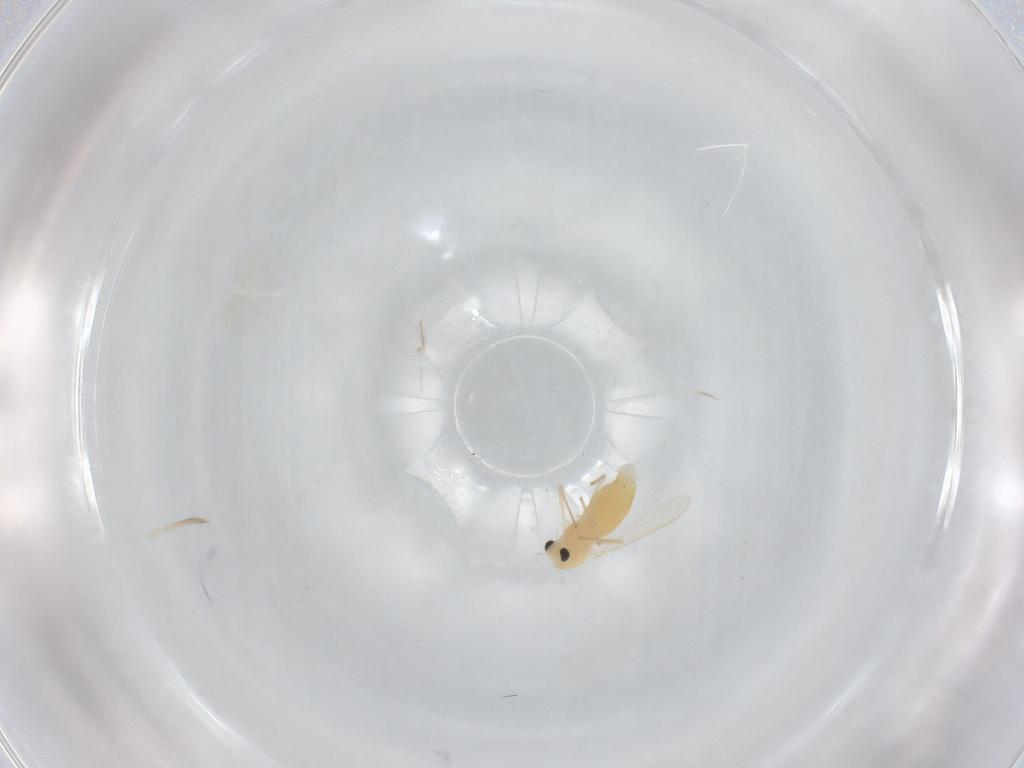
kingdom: Animalia
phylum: Arthropoda
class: Insecta
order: Diptera
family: Chironomidae
